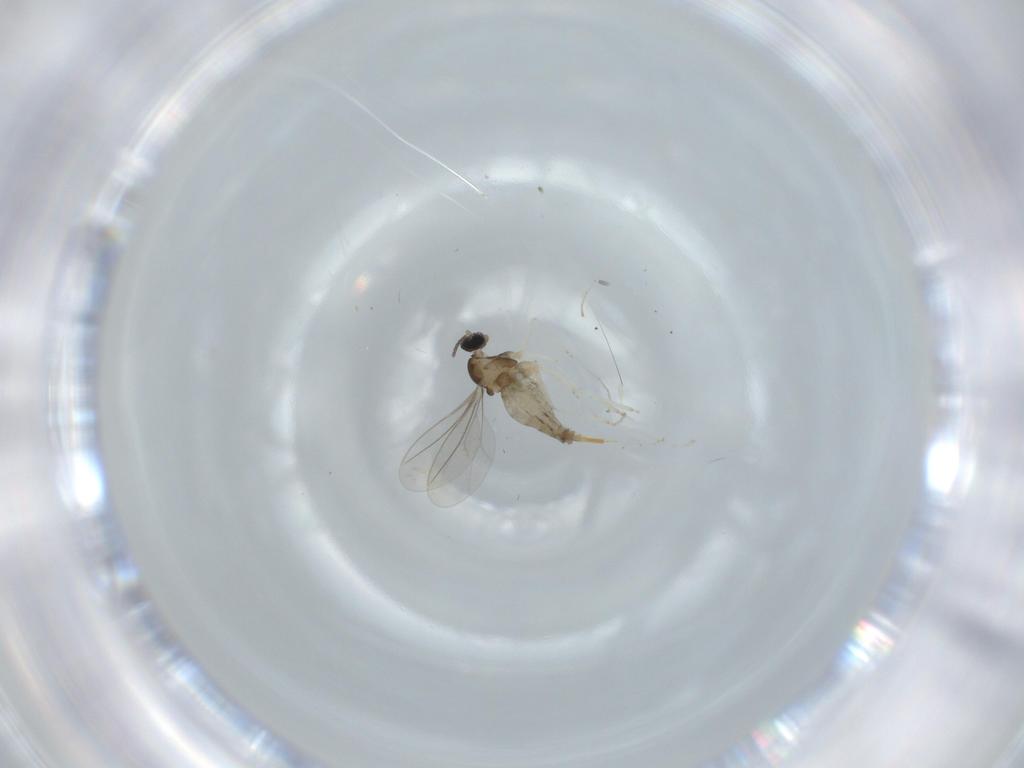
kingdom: Animalia
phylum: Arthropoda
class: Insecta
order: Diptera
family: Cecidomyiidae
